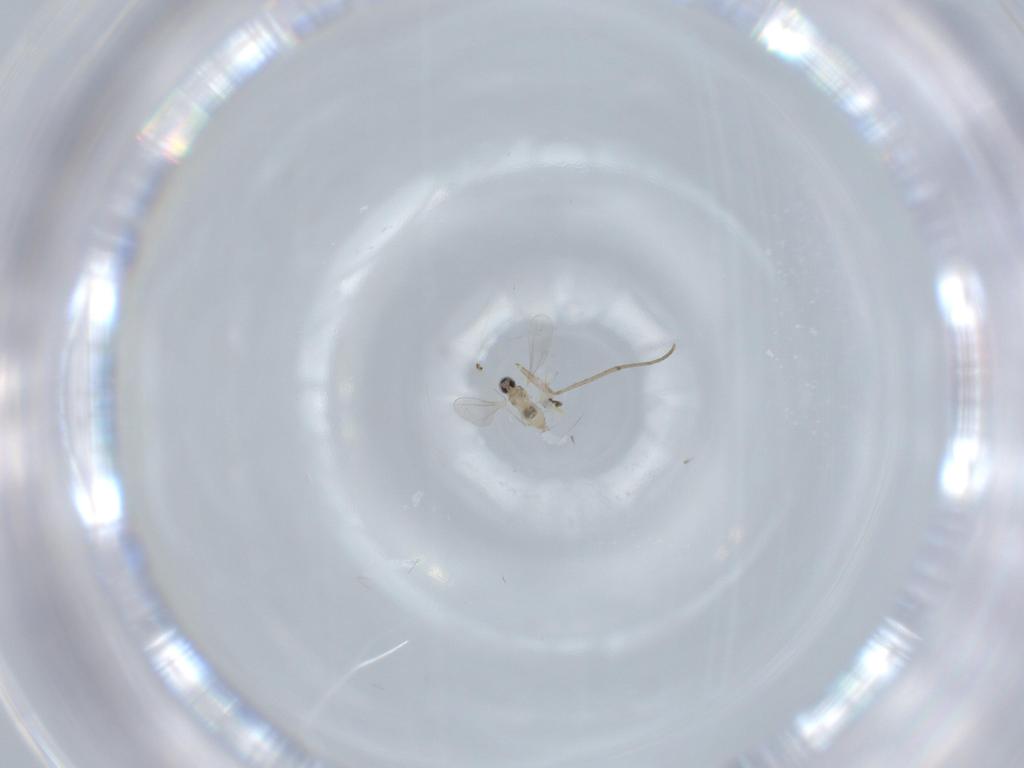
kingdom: Animalia
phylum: Arthropoda
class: Insecta
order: Diptera
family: Cecidomyiidae
